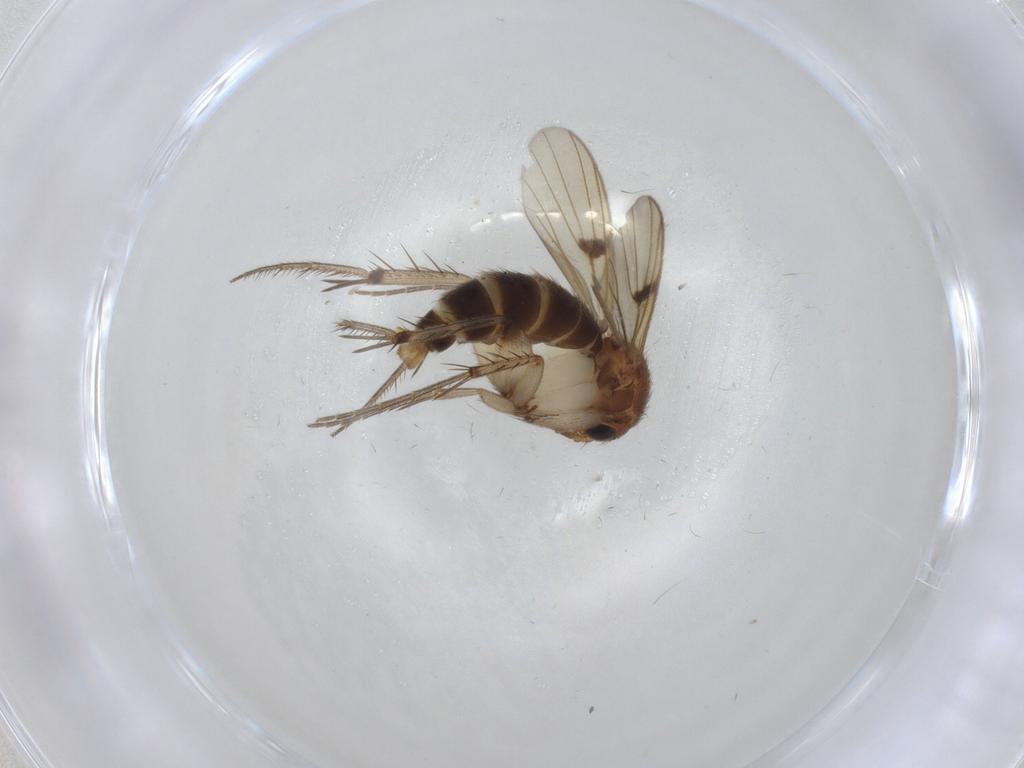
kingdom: Animalia
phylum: Arthropoda
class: Insecta
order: Diptera
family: Mycetophilidae
